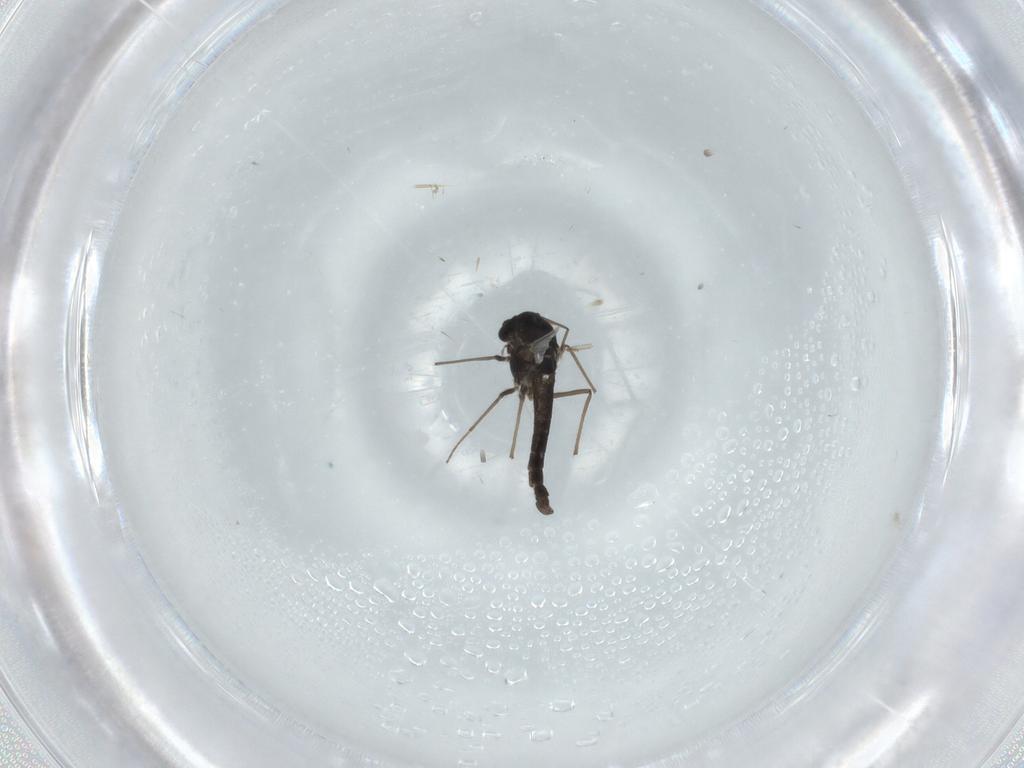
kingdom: Animalia
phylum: Arthropoda
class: Insecta
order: Diptera
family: Chironomidae
